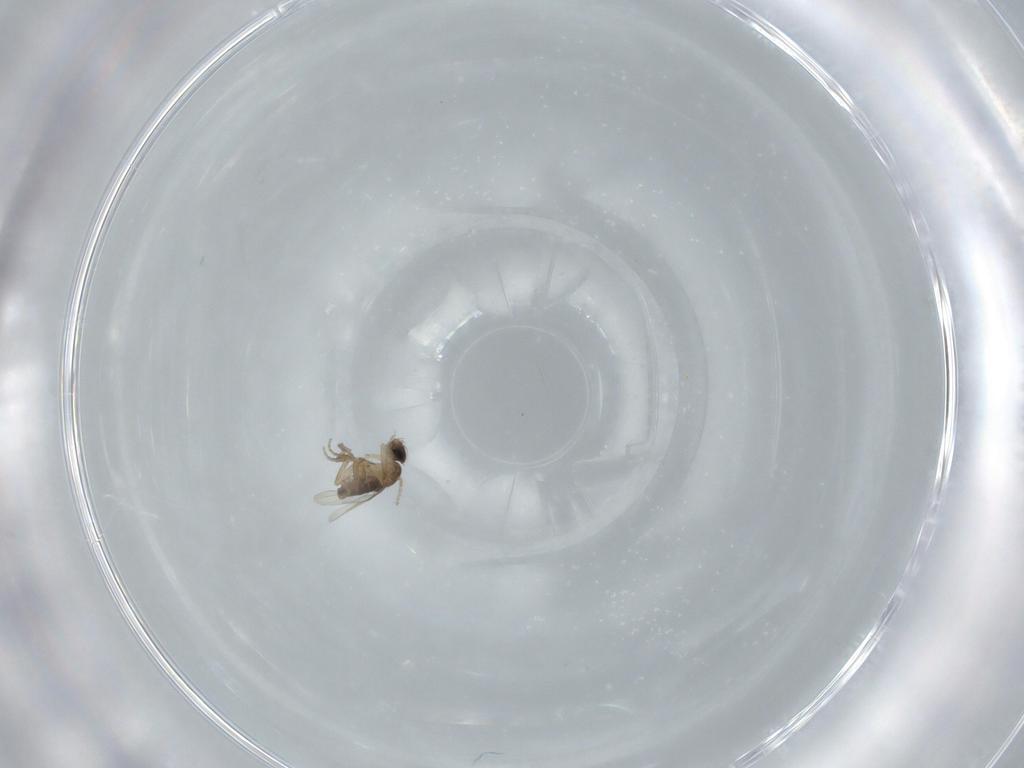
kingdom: Animalia
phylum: Arthropoda
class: Insecta
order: Diptera
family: Phoridae
